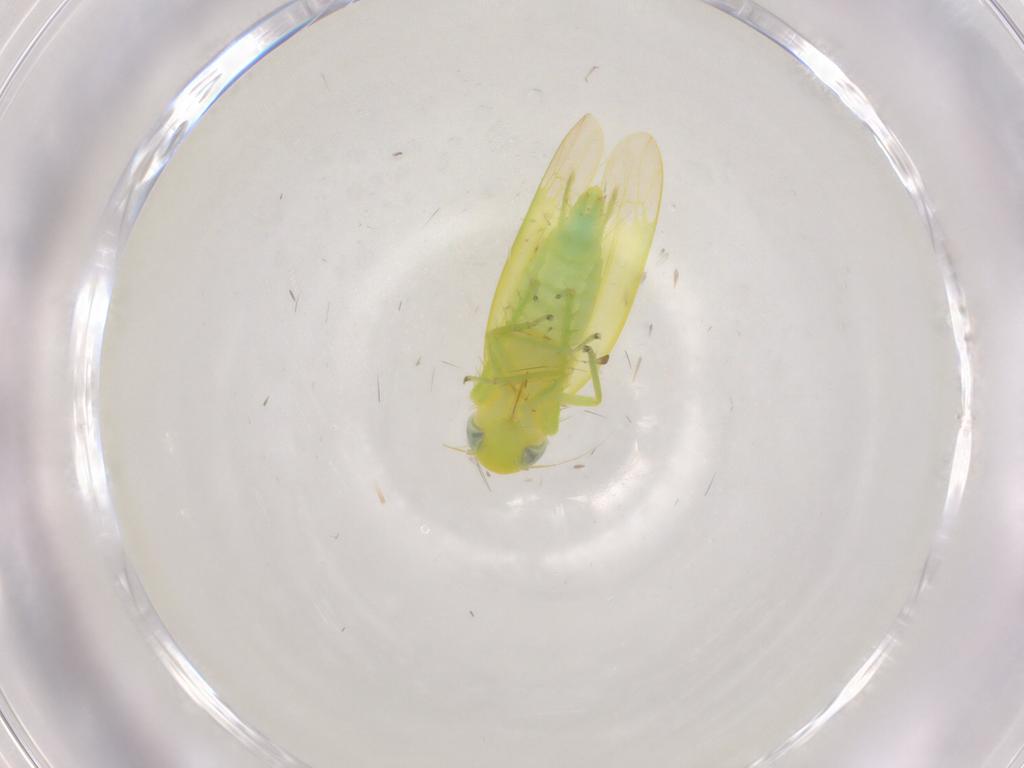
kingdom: Animalia
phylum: Arthropoda
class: Insecta
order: Hemiptera
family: Cicadellidae
